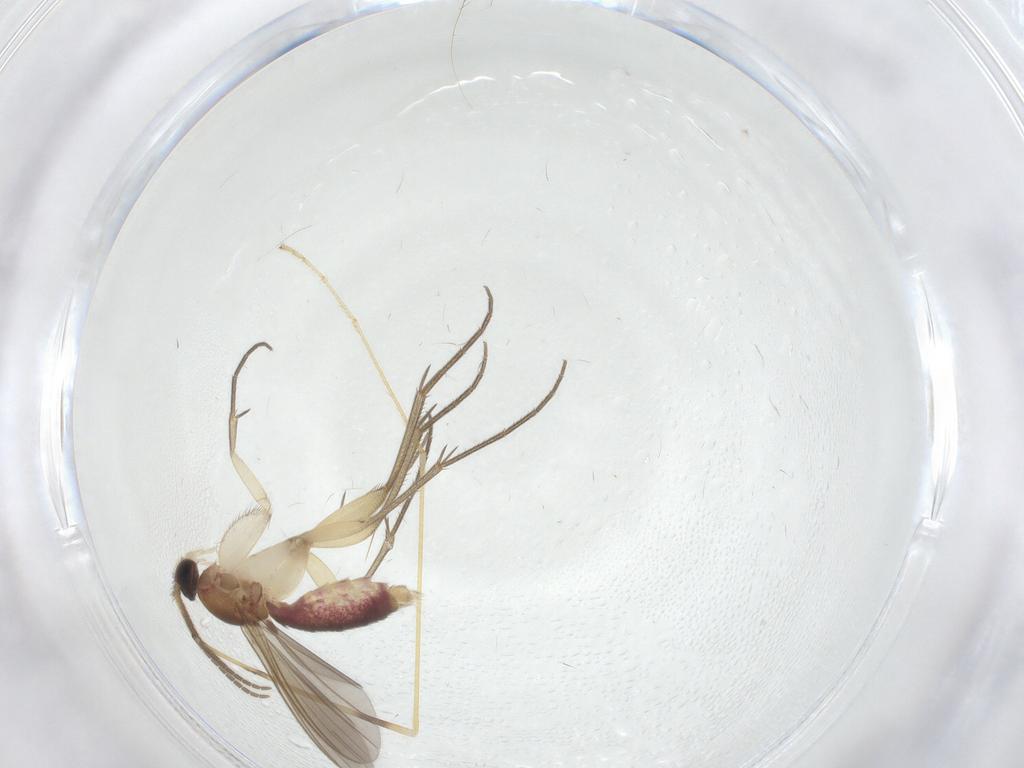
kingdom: Animalia
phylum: Arthropoda
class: Insecta
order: Diptera
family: Mycetophilidae
